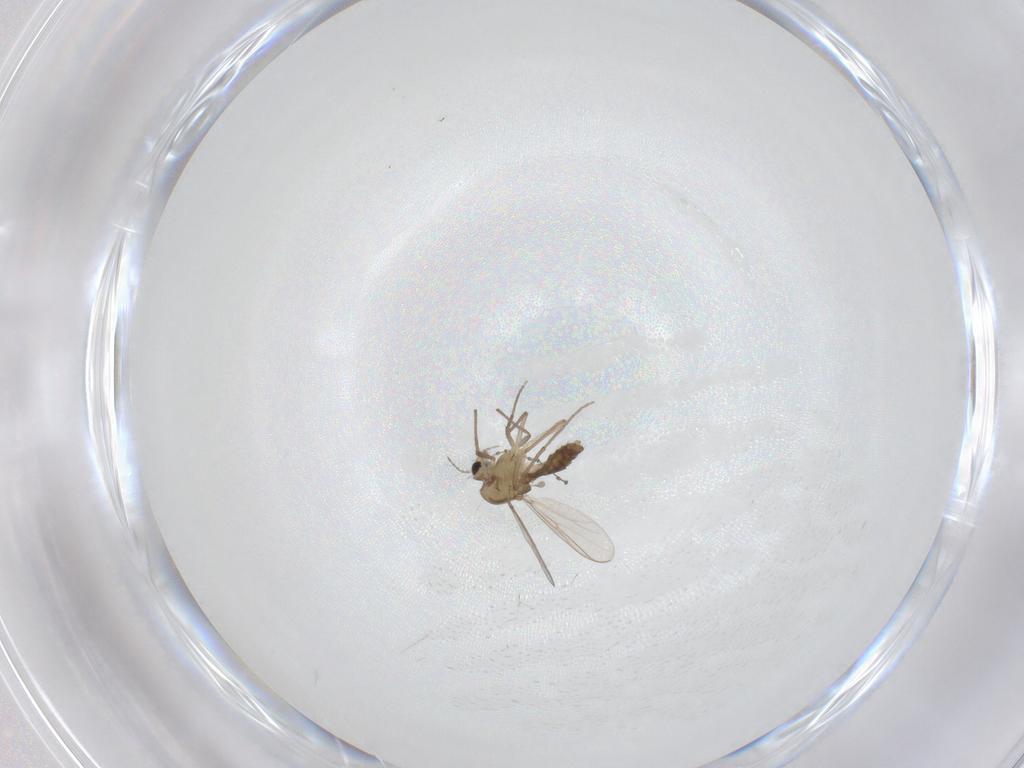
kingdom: Animalia
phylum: Arthropoda
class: Insecta
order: Diptera
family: Chironomidae
